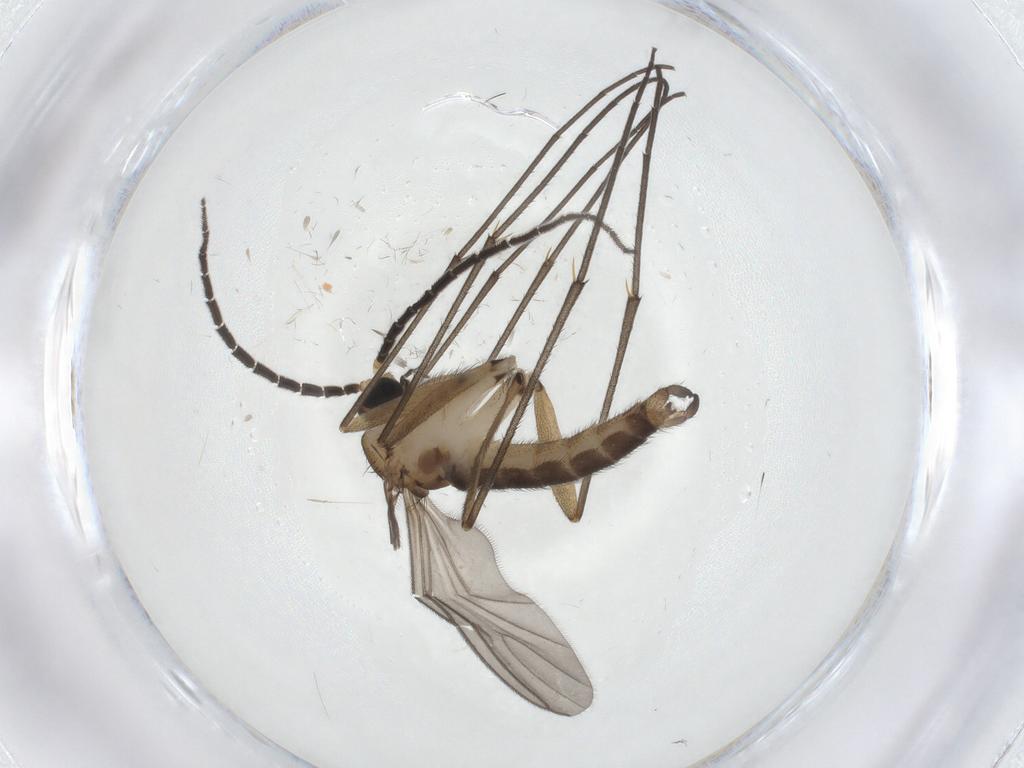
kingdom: Animalia
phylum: Arthropoda
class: Insecta
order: Diptera
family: Sciaridae
